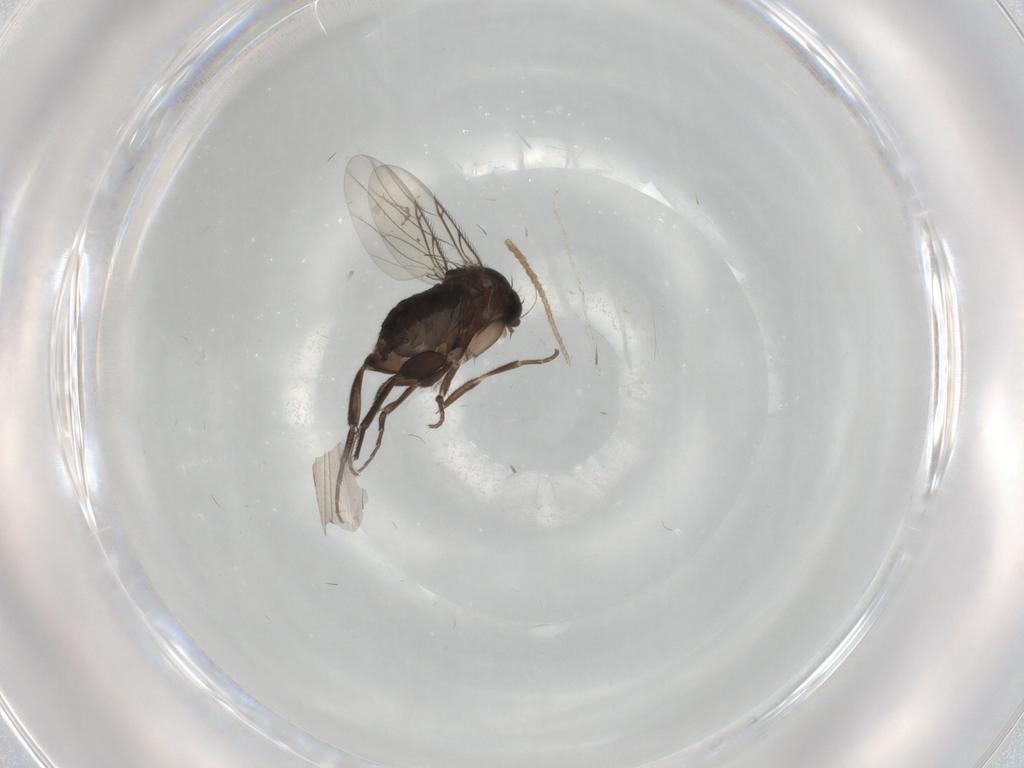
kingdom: Animalia
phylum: Arthropoda
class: Insecta
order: Diptera
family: Phoridae
